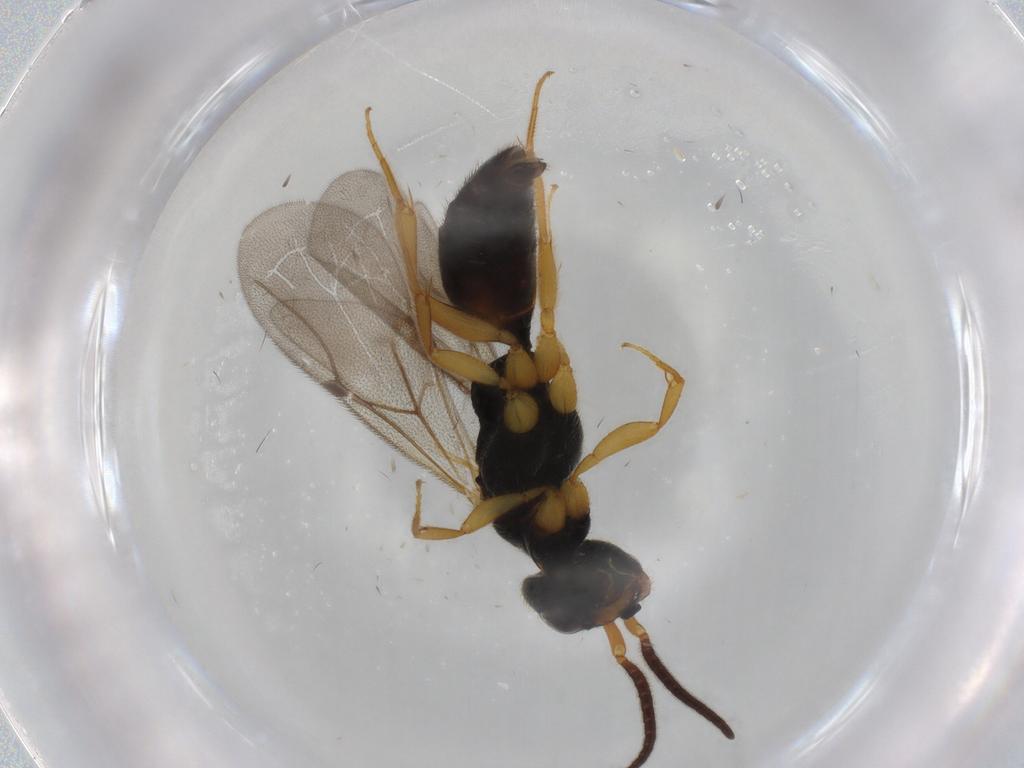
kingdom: Animalia
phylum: Arthropoda
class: Insecta
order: Hymenoptera
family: Bethylidae
